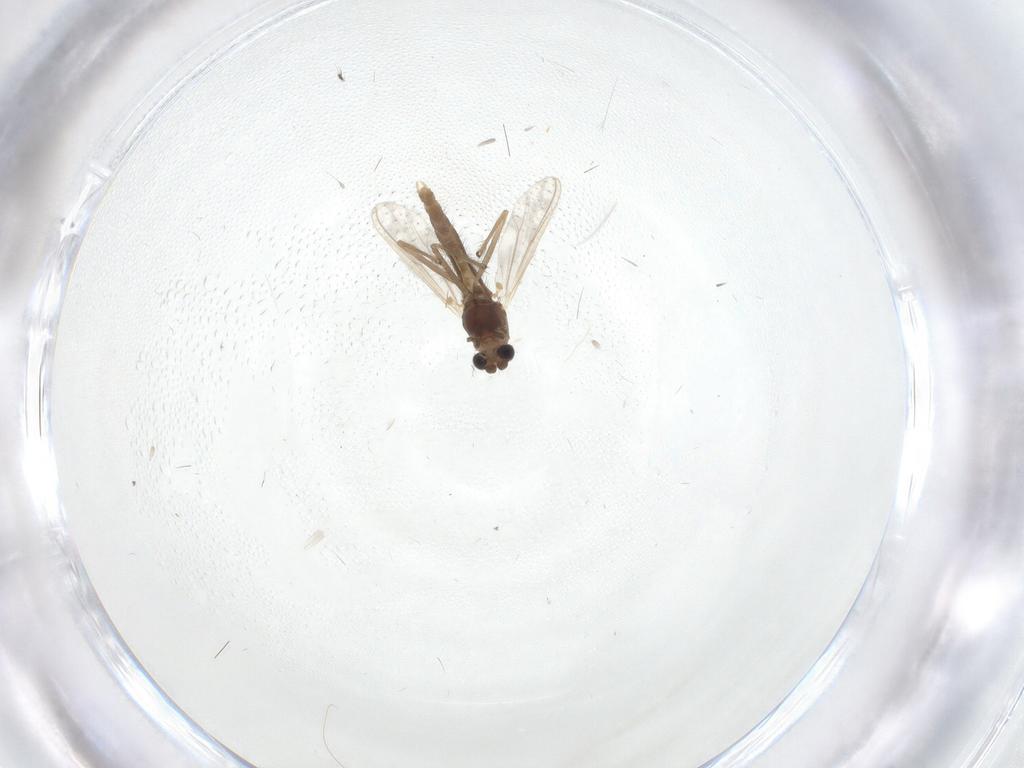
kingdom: Animalia
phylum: Arthropoda
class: Insecta
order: Diptera
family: Chironomidae
